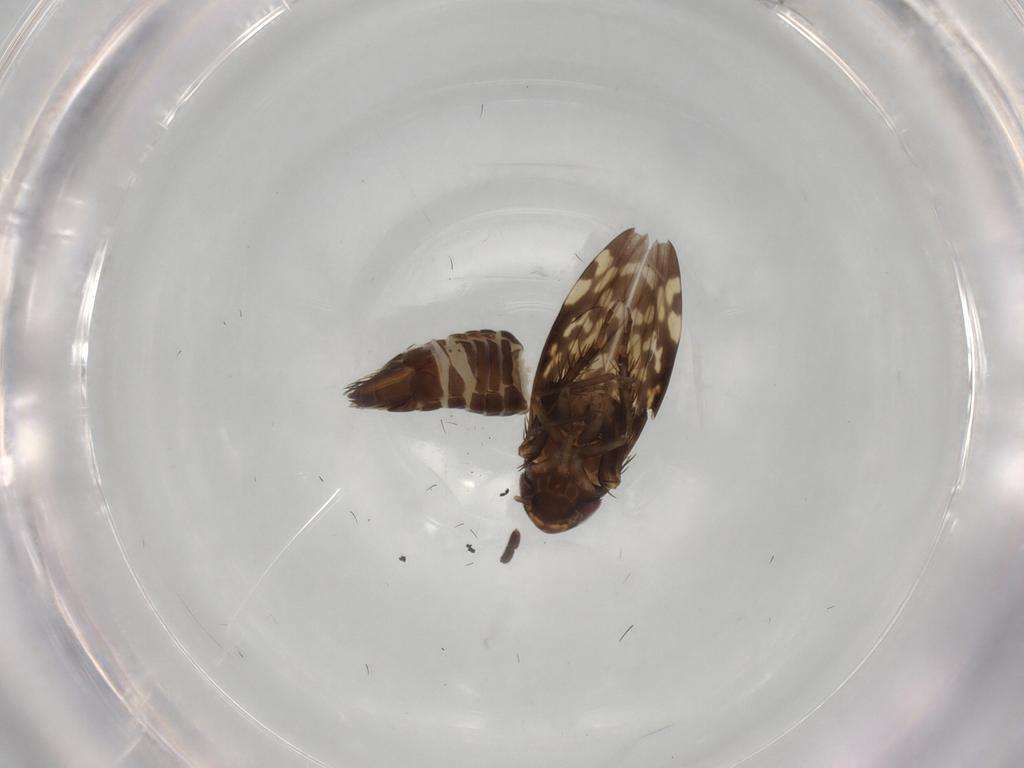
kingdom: Animalia
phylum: Arthropoda
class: Insecta
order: Hemiptera
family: Cicadellidae
